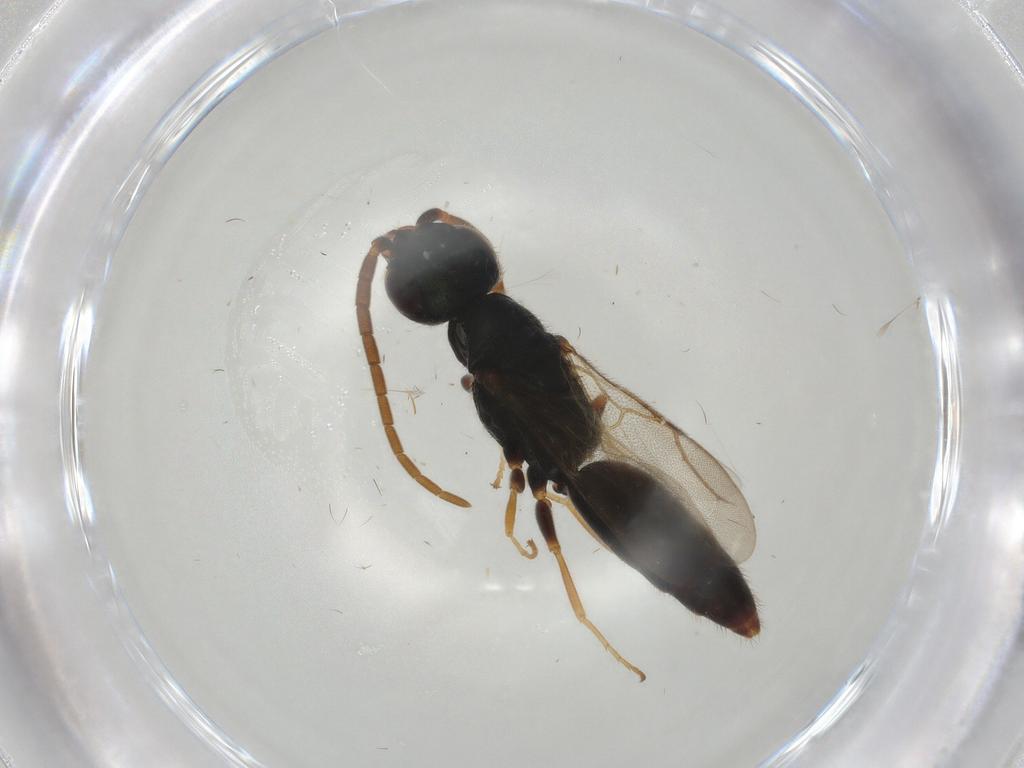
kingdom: Animalia
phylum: Arthropoda
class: Insecta
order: Hymenoptera
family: Bethylidae
